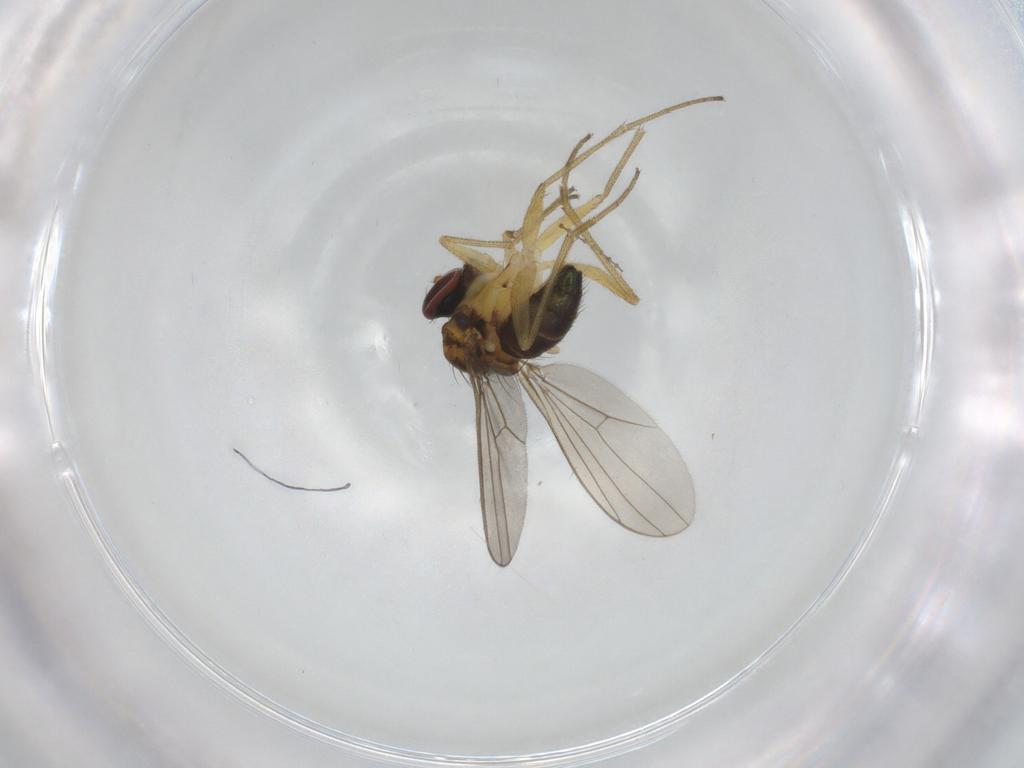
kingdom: Animalia
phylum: Arthropoda
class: Insecta
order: Diptera
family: Dolichopodidae
